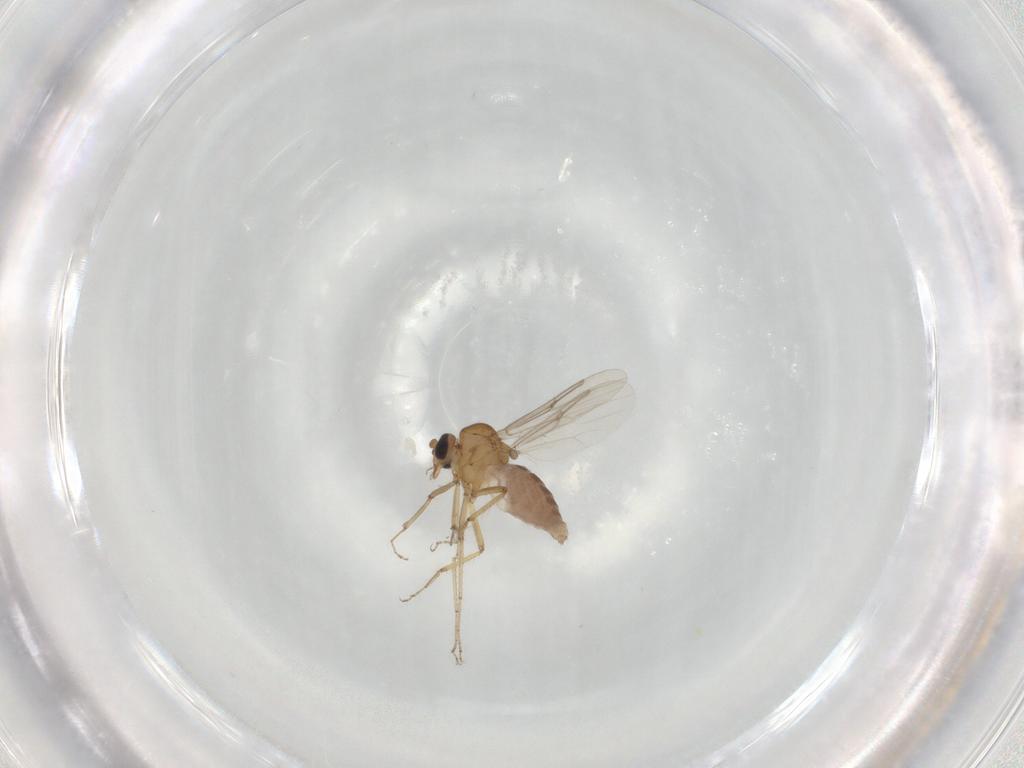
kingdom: Animalia
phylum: Arthropoda
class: Insecta
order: Diptera
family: Chironomidae
